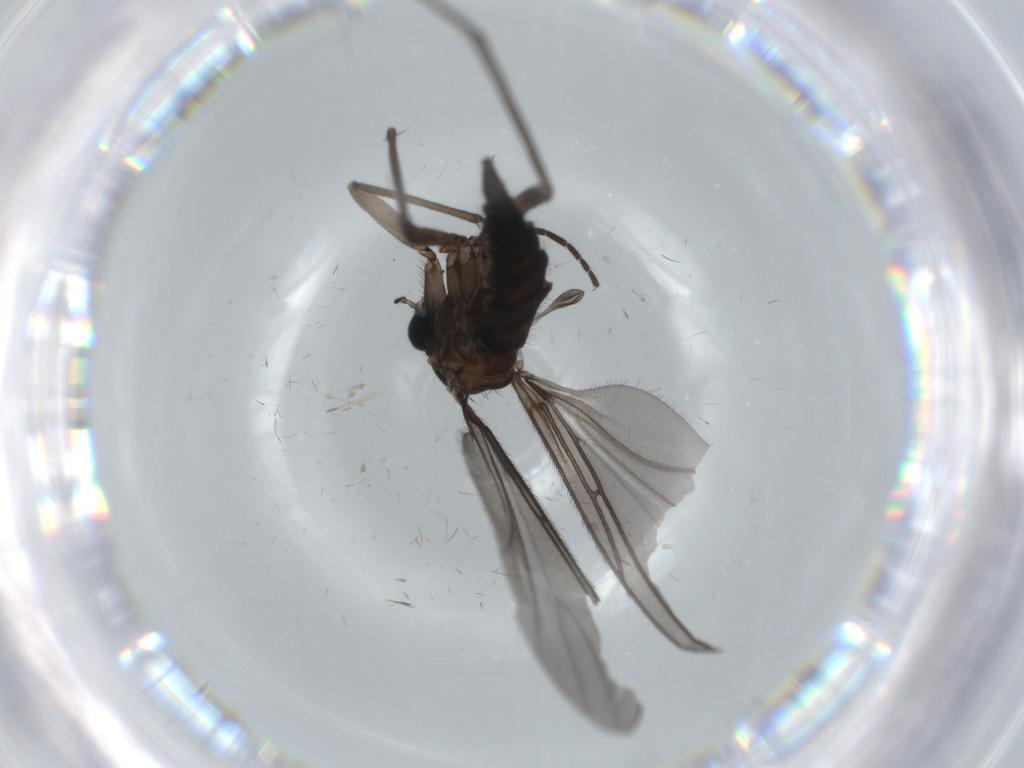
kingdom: Animalia
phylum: Arthropoda
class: Insecta
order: Diptera
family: Sciaridae
